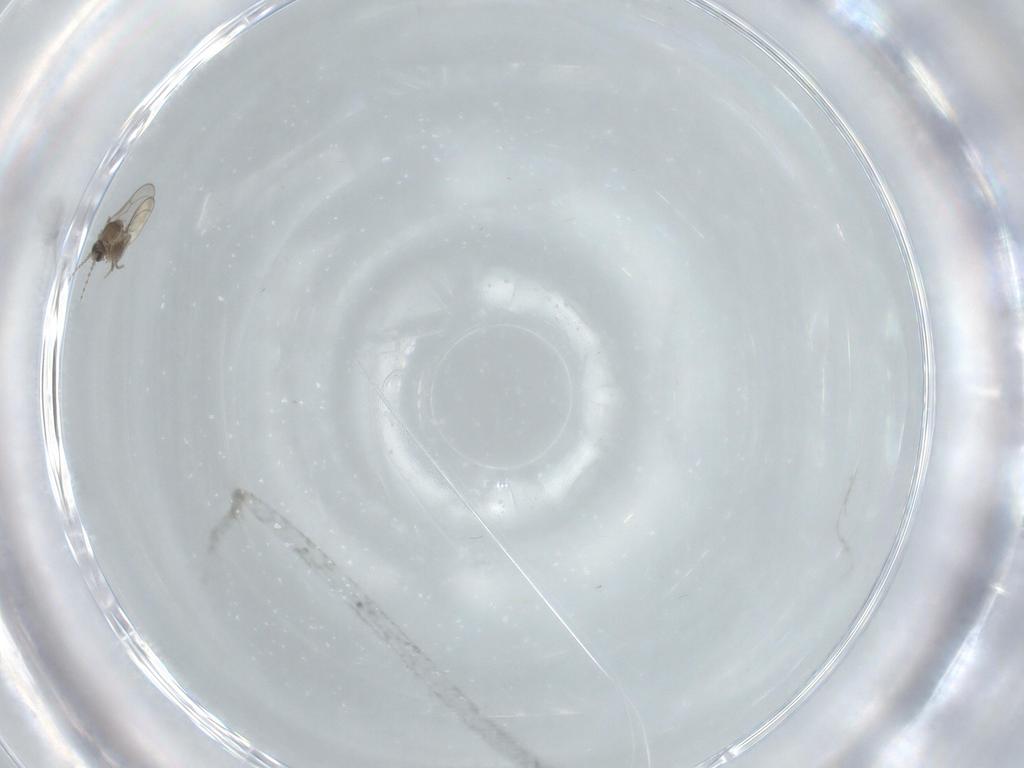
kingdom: Animalia
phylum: Arthropoda
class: Insecta
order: Diptera
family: Cecidomyiidae
